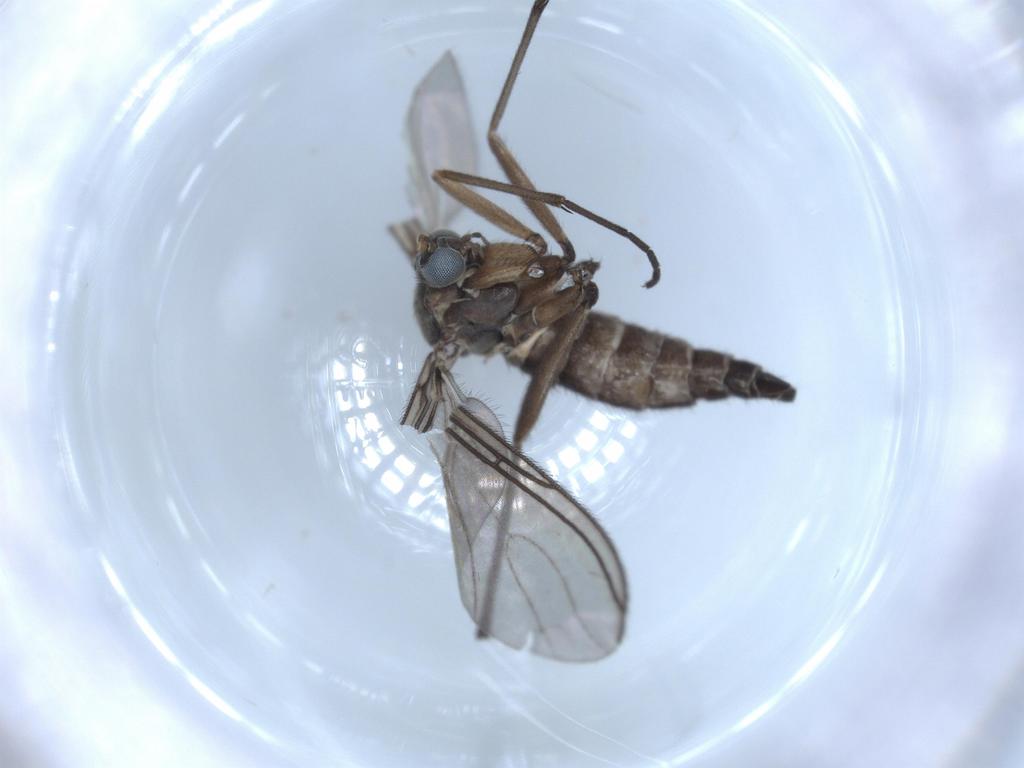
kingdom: Animalia
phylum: Arthropoda
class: Insecta
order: Diptera
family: Sciaridae
